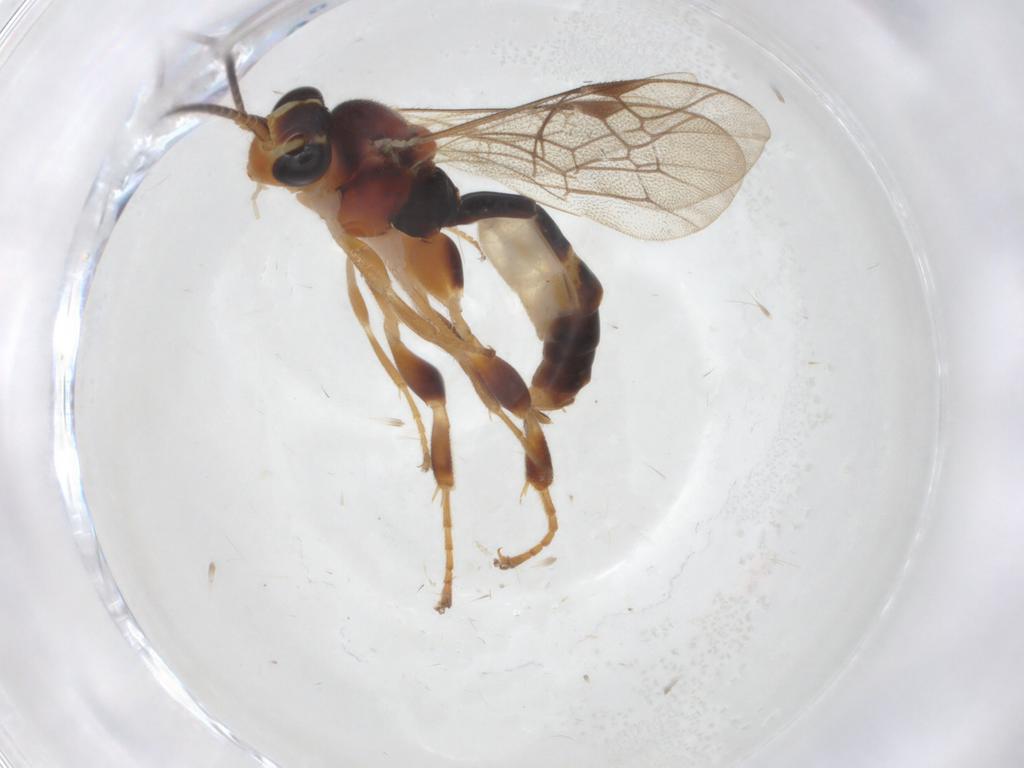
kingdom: Animalia
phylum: Arthropoda
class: Insecta
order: Hymenoptera
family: Ichneumonidae
